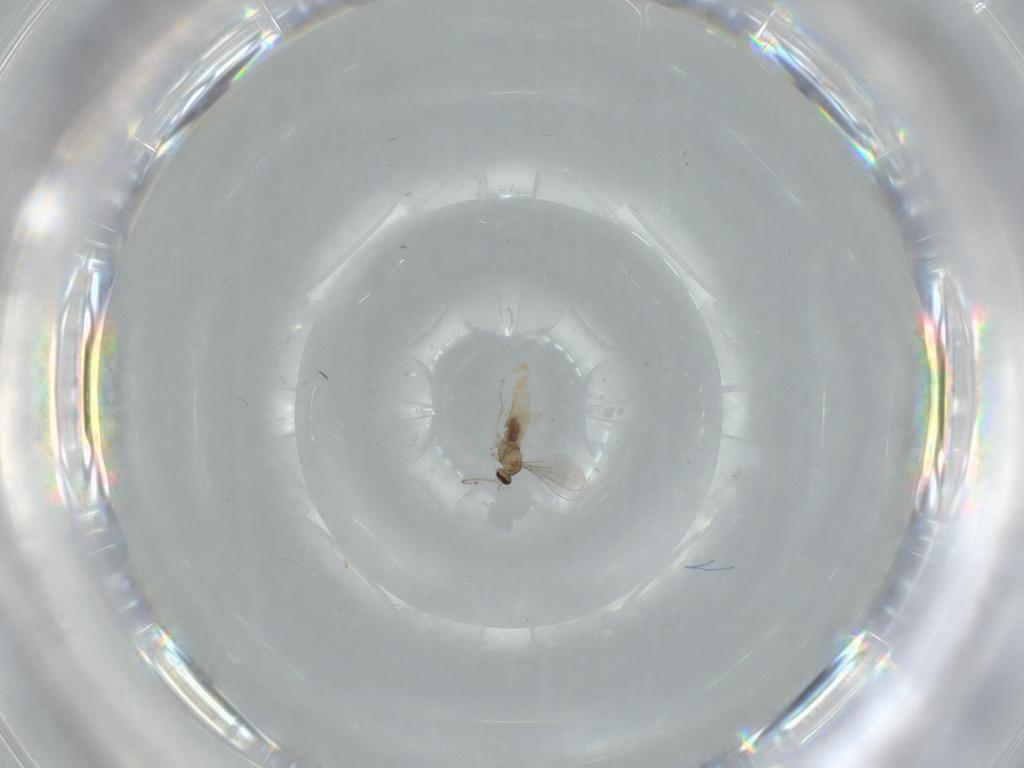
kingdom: Animalia
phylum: Arthropoda
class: Insecta
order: Diptera
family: Cecidomyiidae
